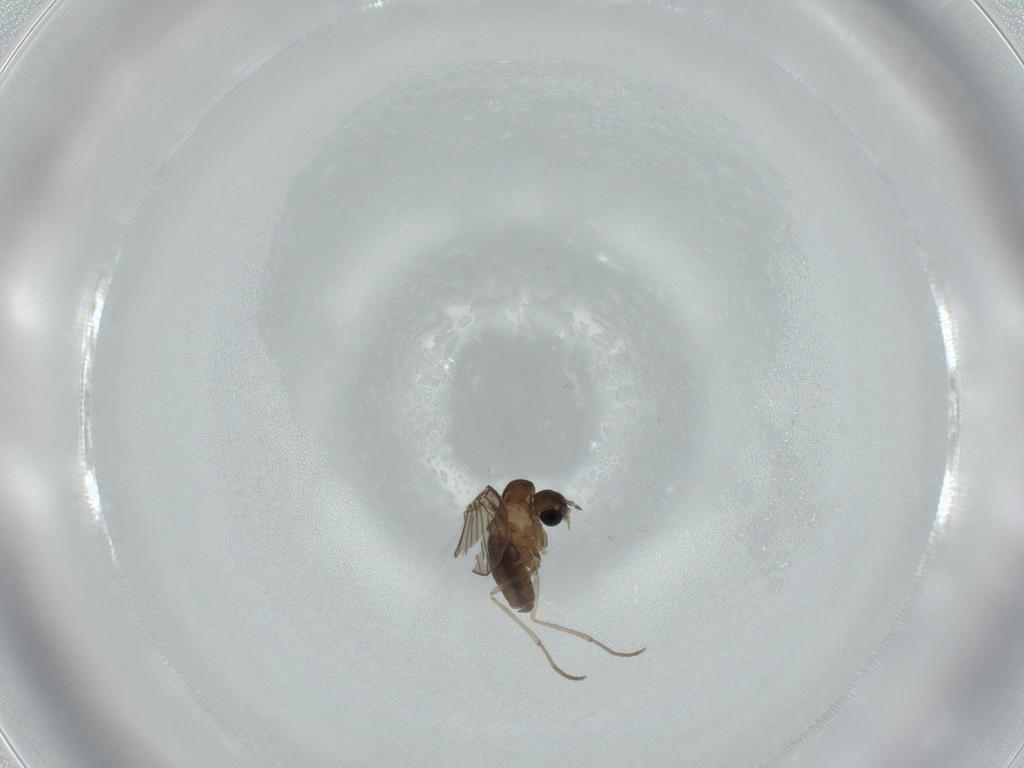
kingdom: Animalia
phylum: Arthropoda
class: Insecta
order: Diptera
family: Psychodidae
